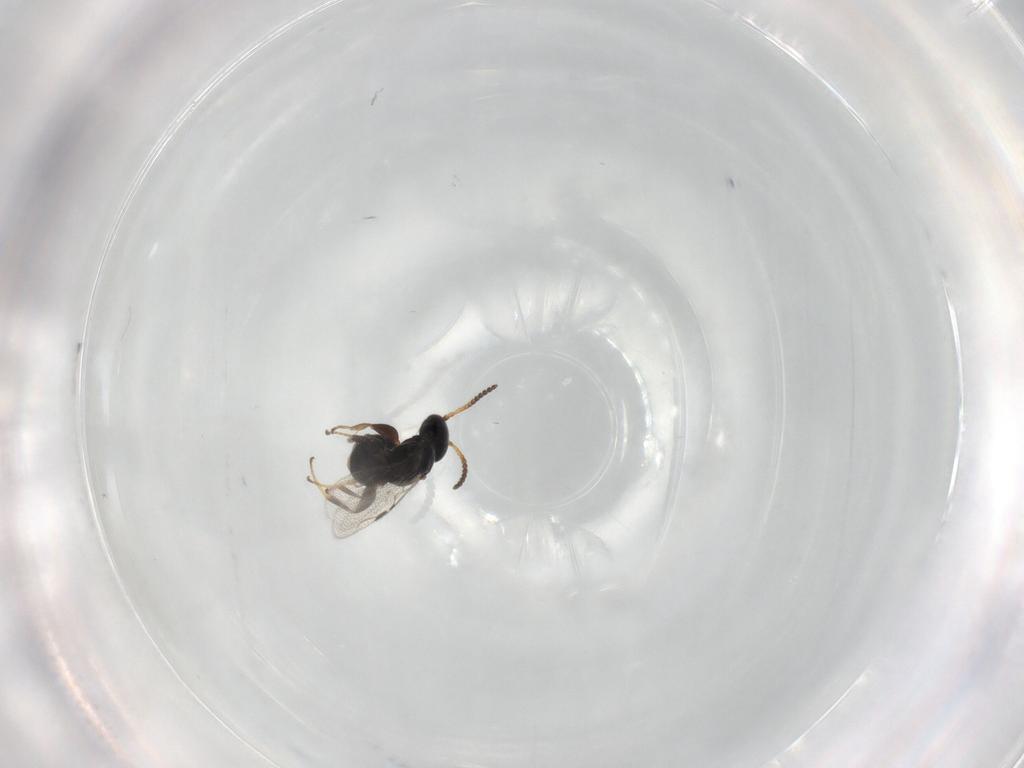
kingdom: Animalia
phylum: Arthropoda
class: Insecta
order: Hymenoptera
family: Bethylidae
